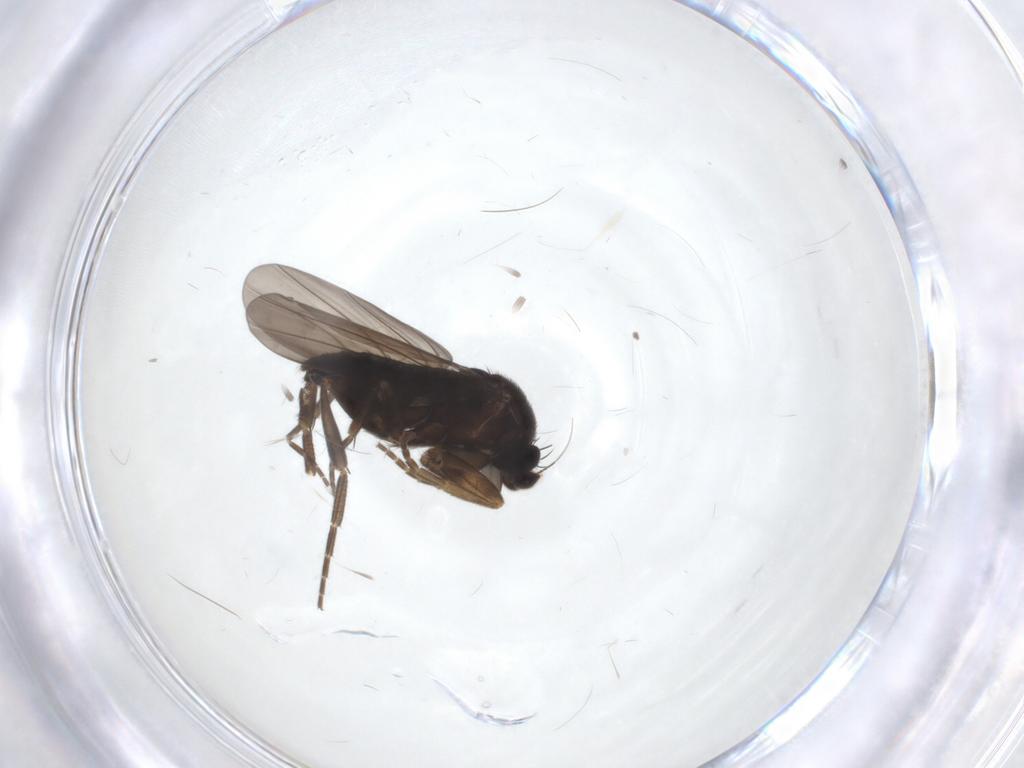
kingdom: Animalia
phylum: Arthropoda
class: Insecta
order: Diptera
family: Phoridae
